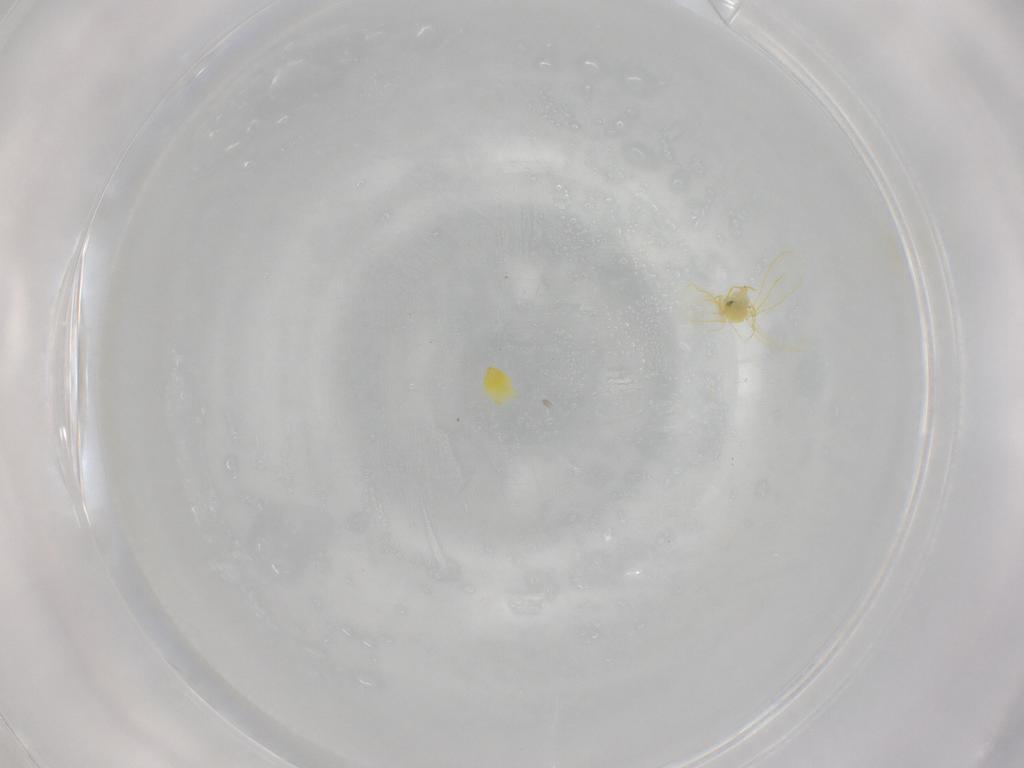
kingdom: Animalia
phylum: Arthropoda
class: Insecta
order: Hemiptera
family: Aleyrodidae
